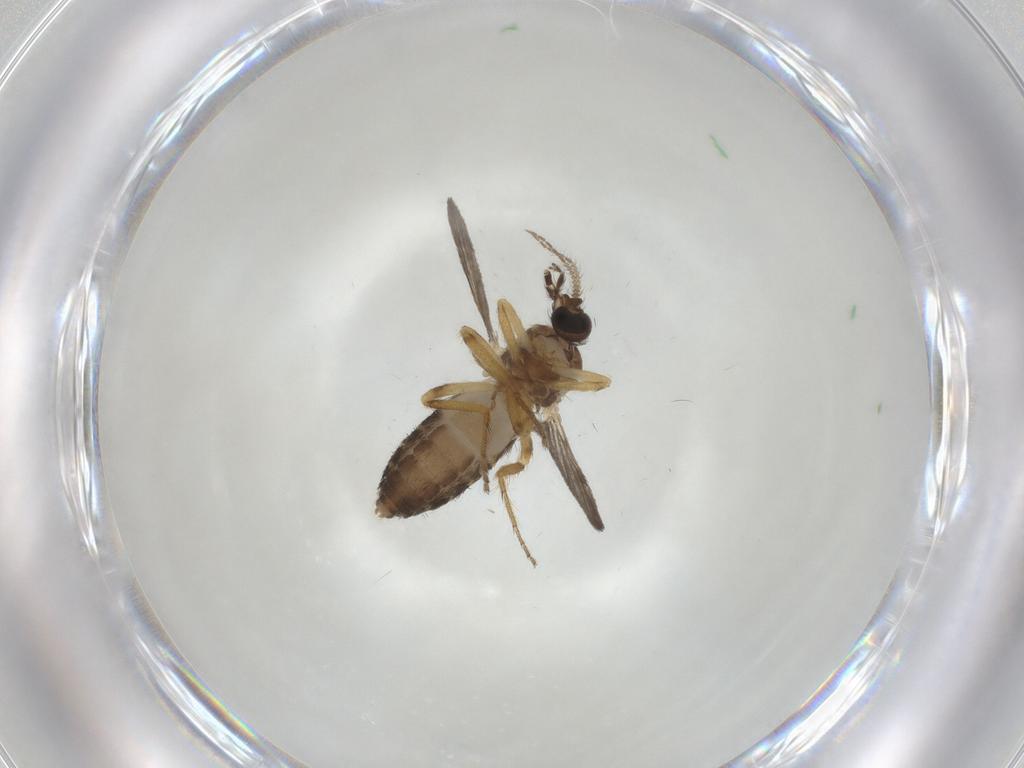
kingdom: Animalia
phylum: Arthropoda
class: Insecta
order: Diptera
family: Ceratopogonidae
